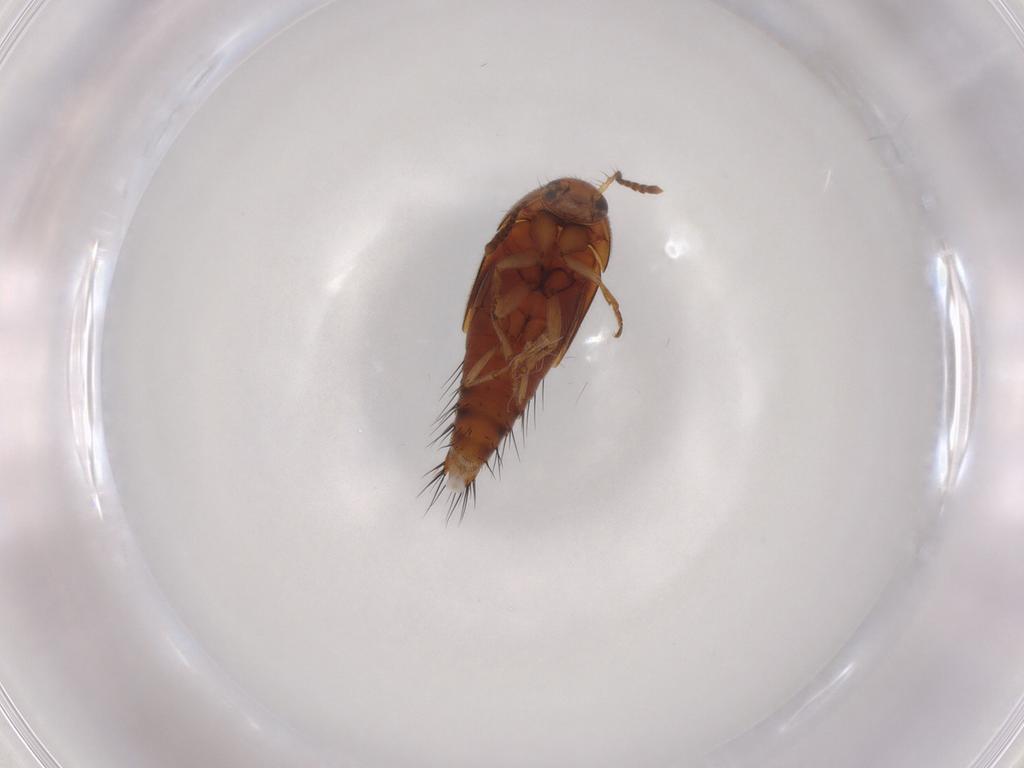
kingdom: Animalia
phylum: Arthropoda
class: Insecta
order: Coleoptera
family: Staphylinidae
